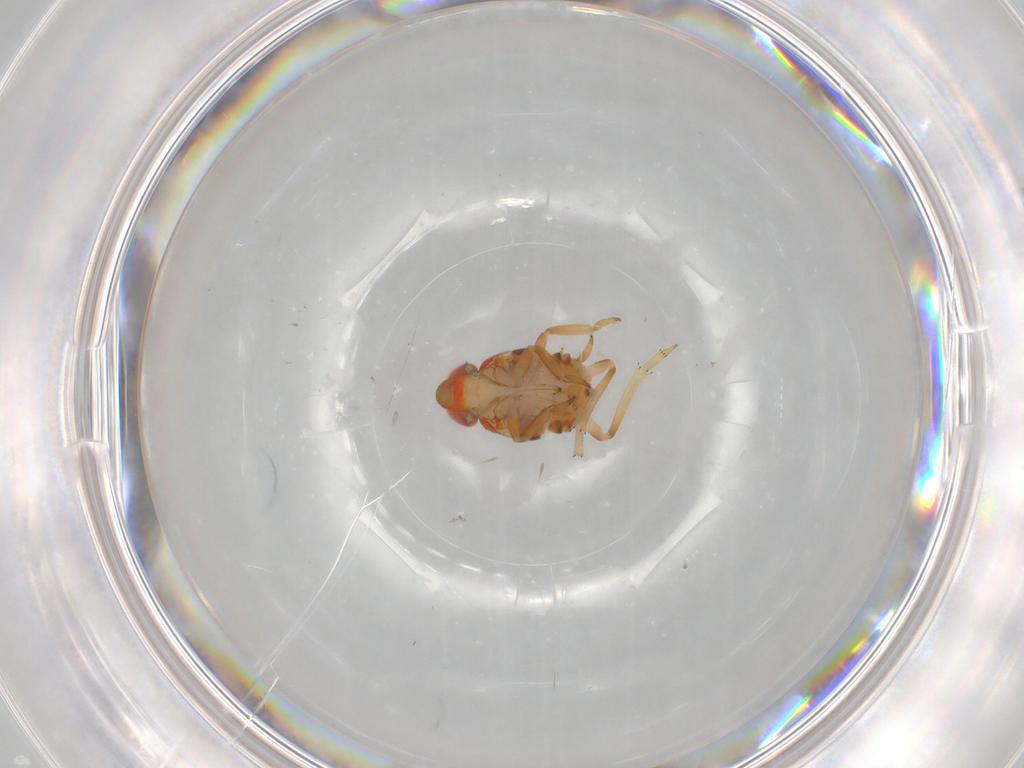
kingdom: Animalia
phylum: Arthropoda
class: Insecta
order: Hemiptera
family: Issidae
